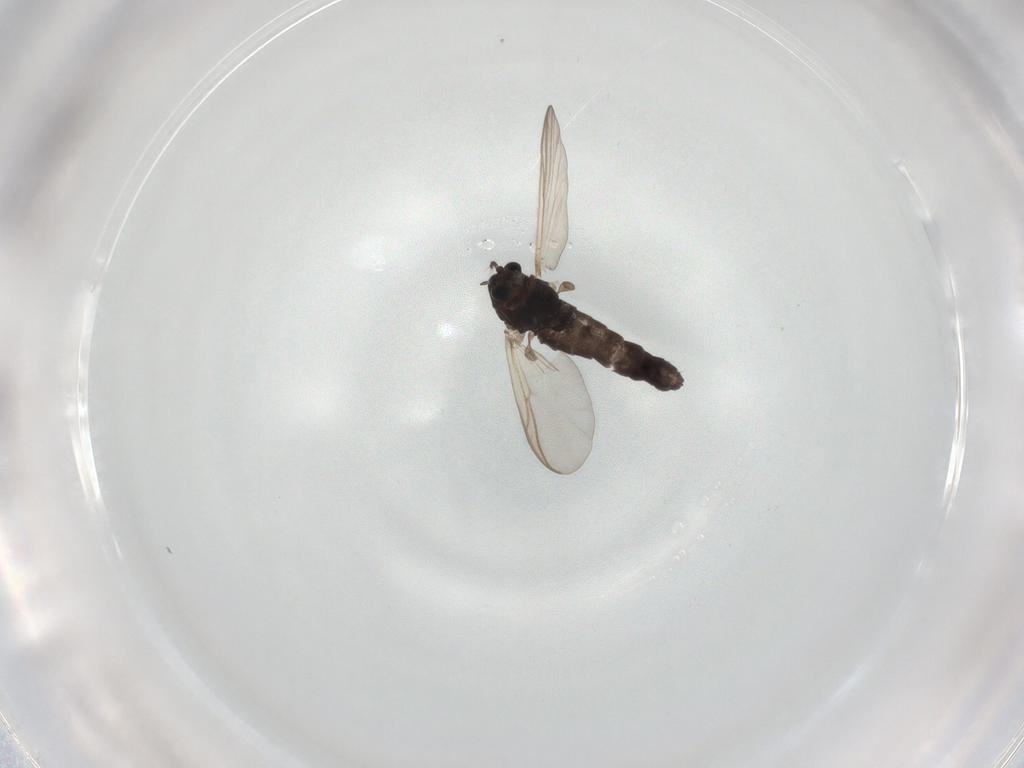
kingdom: Animalia
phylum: Arthropoda
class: Insecta
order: Diptera
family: Chironomidae
